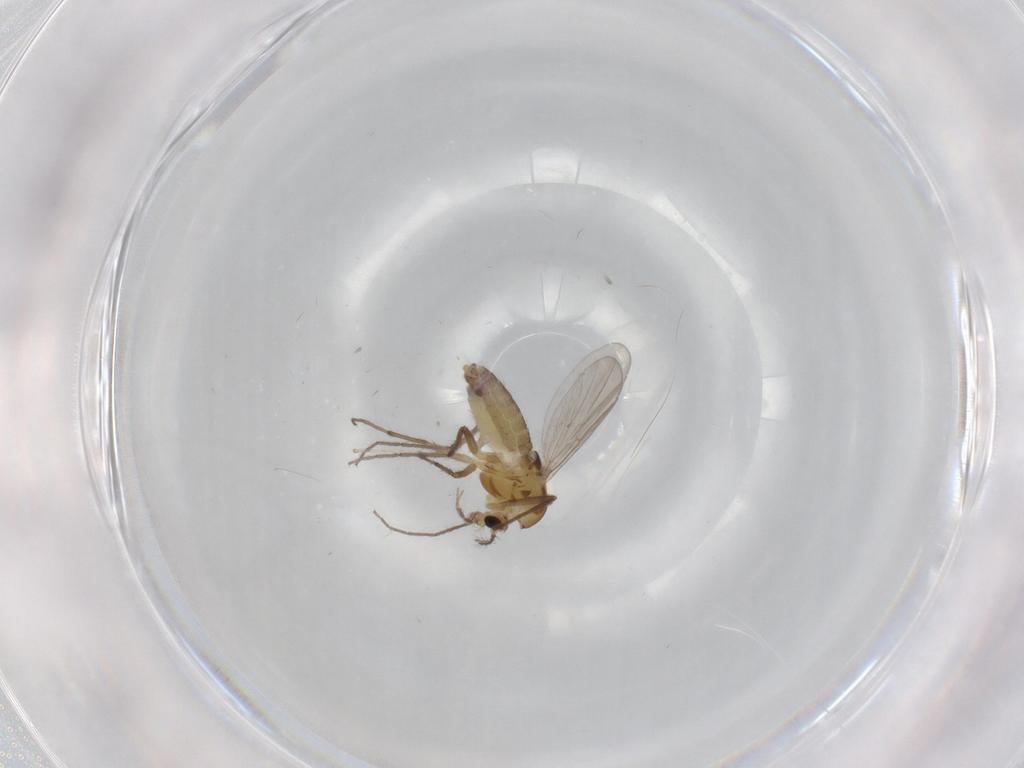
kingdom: Animalia
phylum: Arthropoda
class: Insecta
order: Diptera
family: Chironomidae
